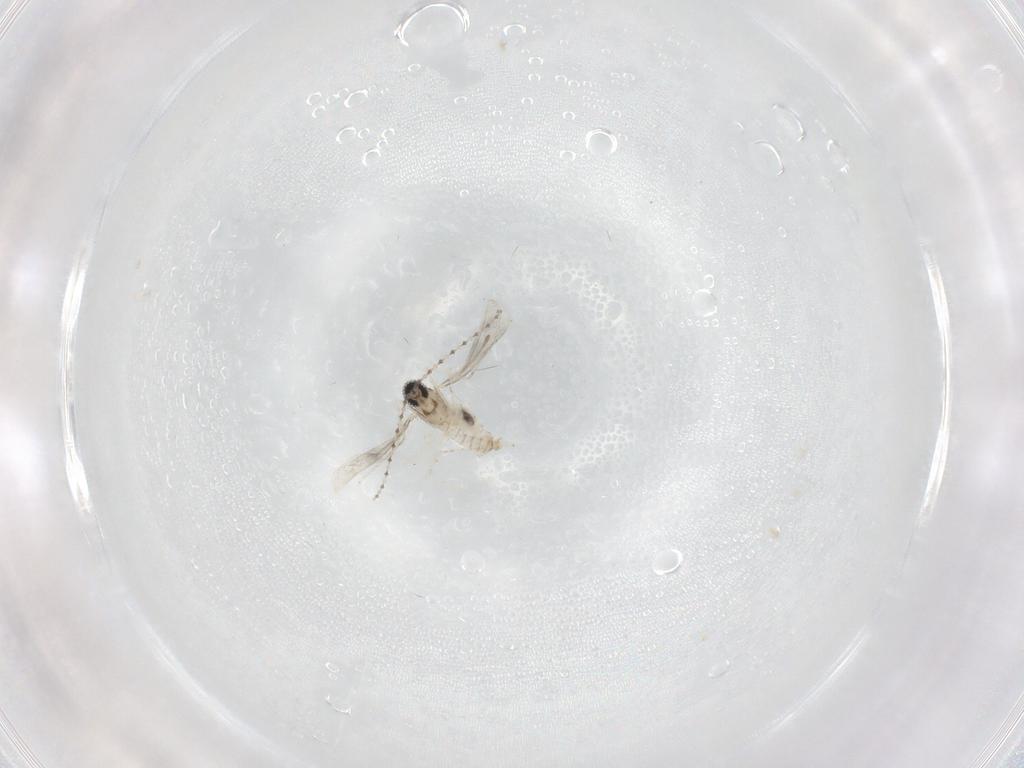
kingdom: Animalia
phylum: Arthropoda
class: Insecta
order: Diptera
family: Cecidomyiidae
